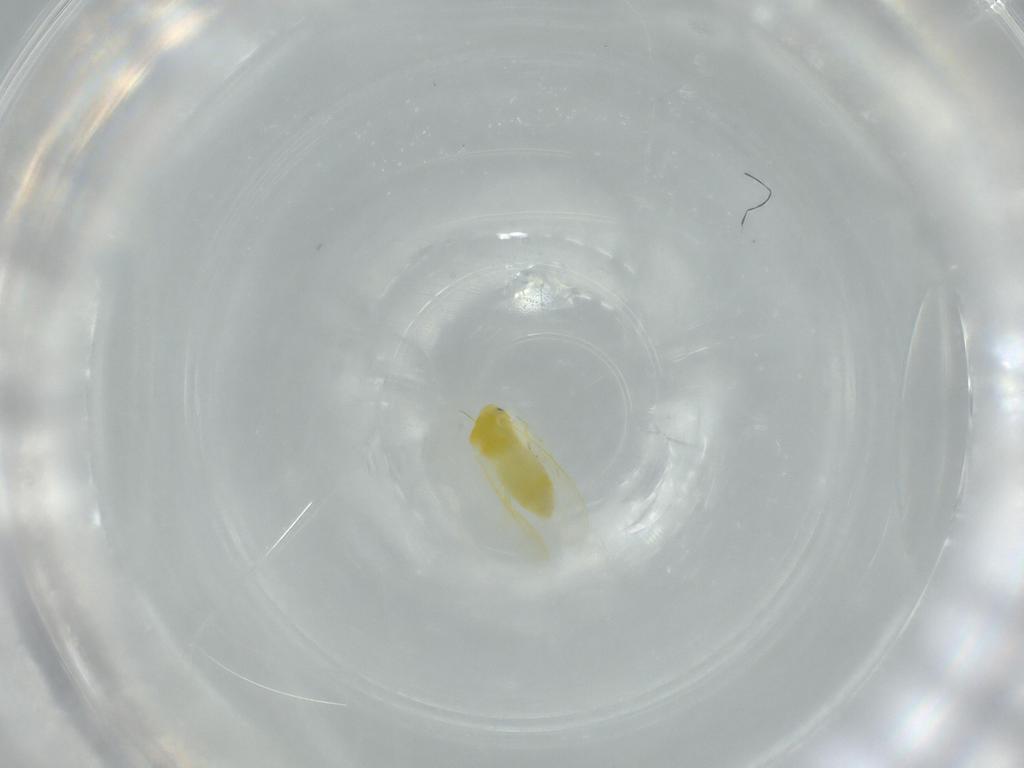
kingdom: Animalia
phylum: Arthropoda
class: Insecta
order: Hemiptera
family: Aleyrodidae
